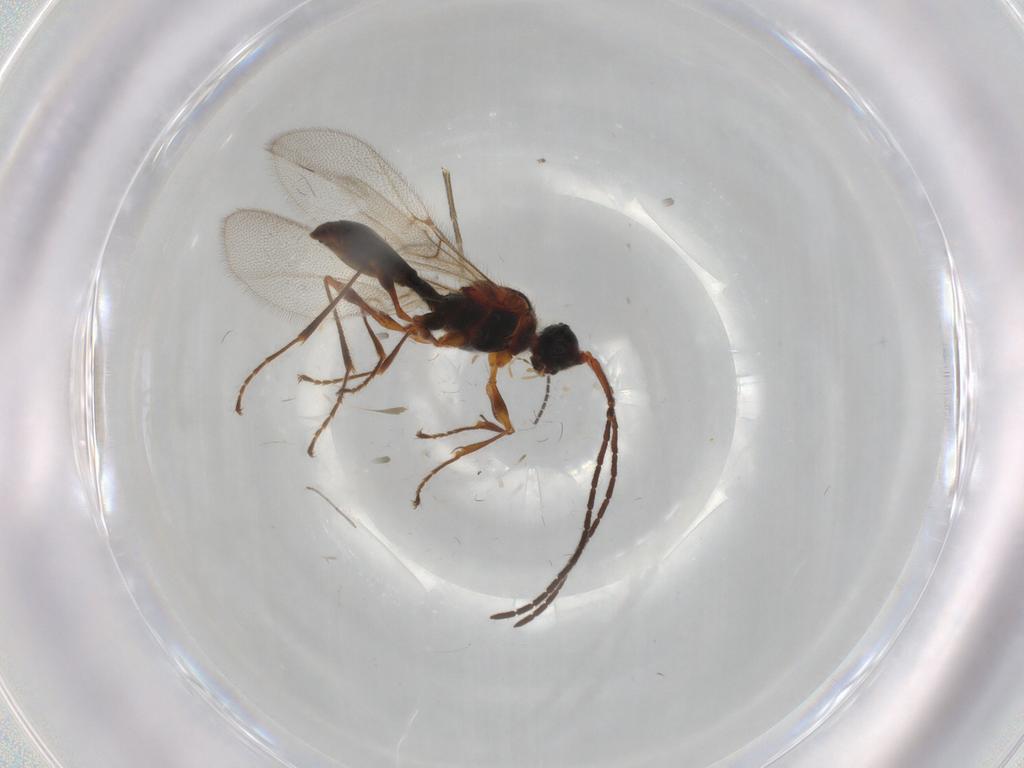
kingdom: Animalia
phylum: Arthropoda
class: Insecta
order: Hymenoptera
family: Diapriidae
